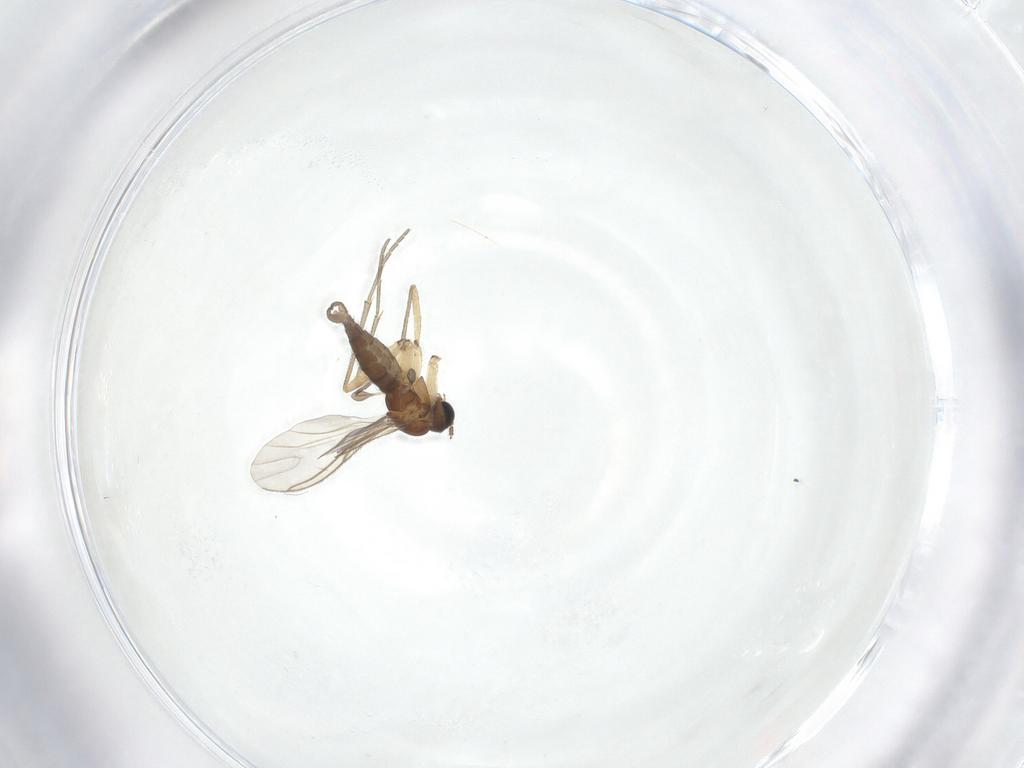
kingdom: Animalia
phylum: Arthropoda
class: Insecta
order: Diptera
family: Sciaridae
